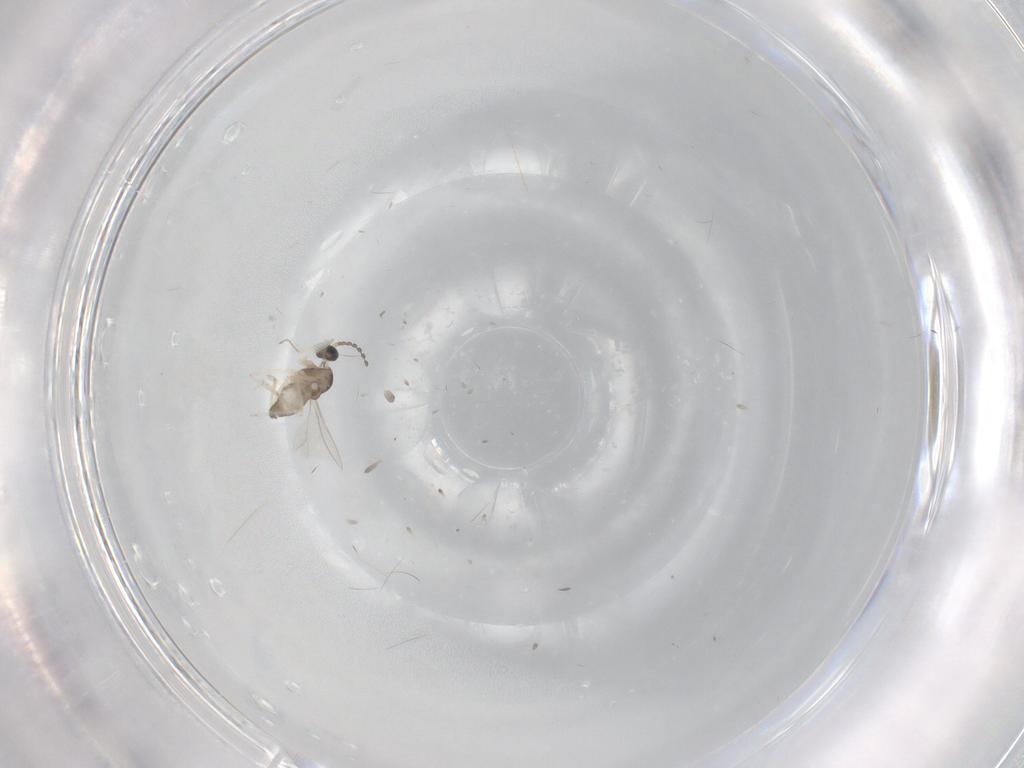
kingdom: Animalia
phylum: Arthropoda
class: Insecta
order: Diptera
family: Cecidomyiidae
